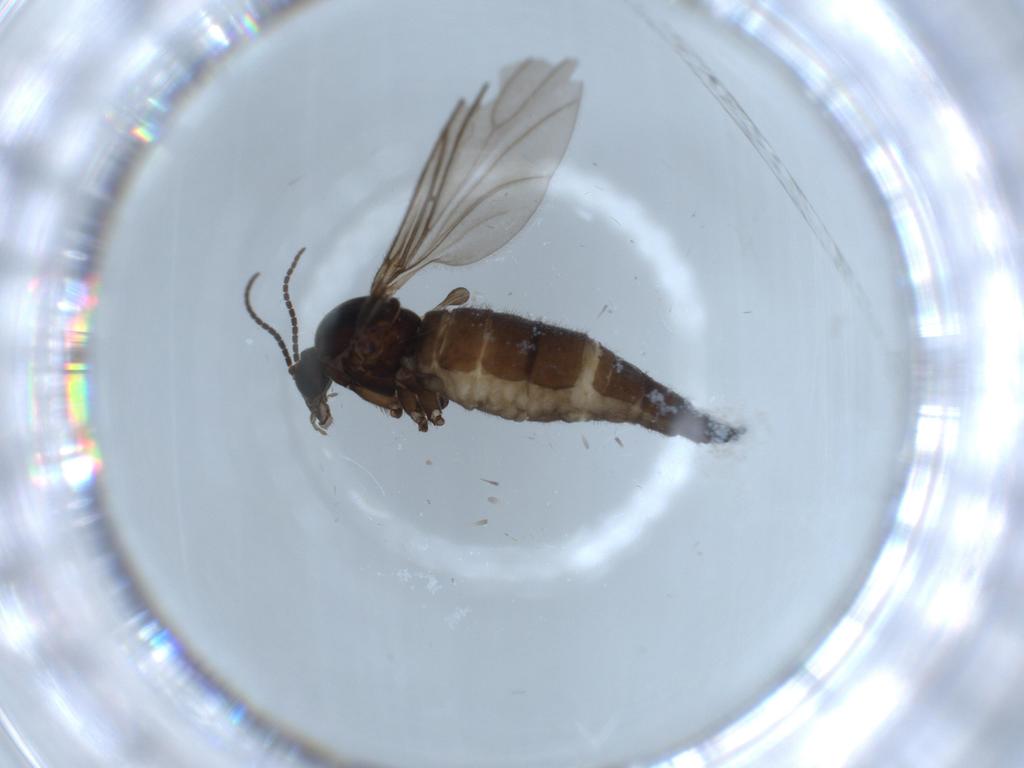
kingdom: Animalia
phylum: Arthropoda
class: Insecta
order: Diptera
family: Sciaridae
